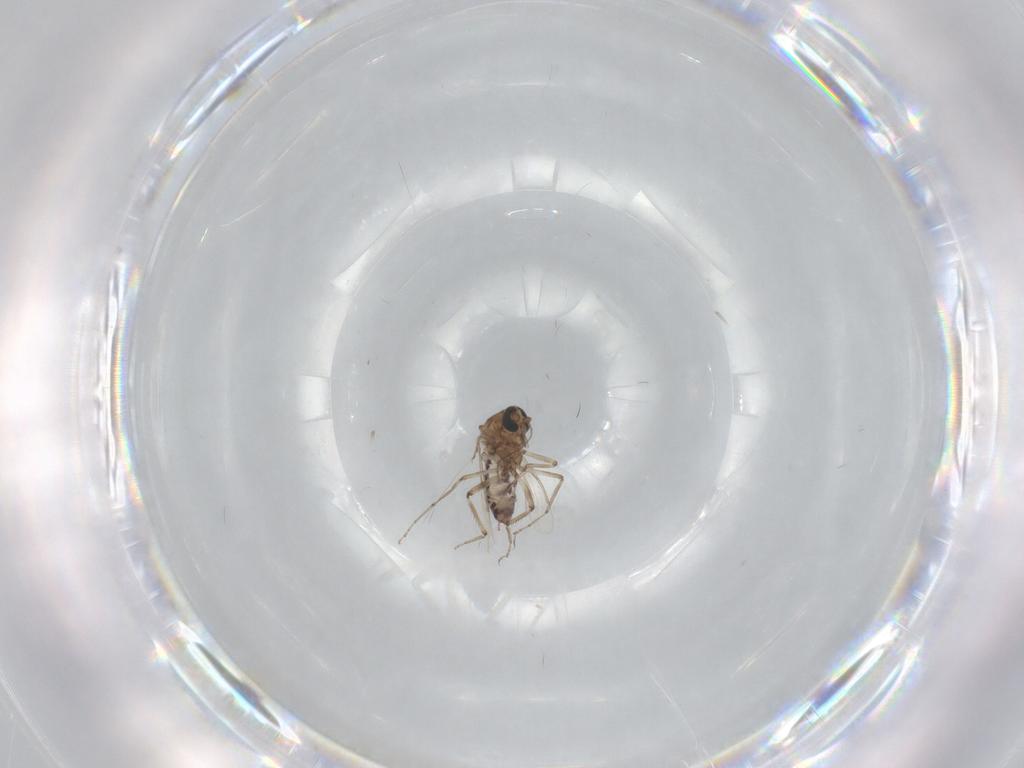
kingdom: Animalia
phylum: Arthropoda
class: Insecta
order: Diptera
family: Ceratopogonidae
